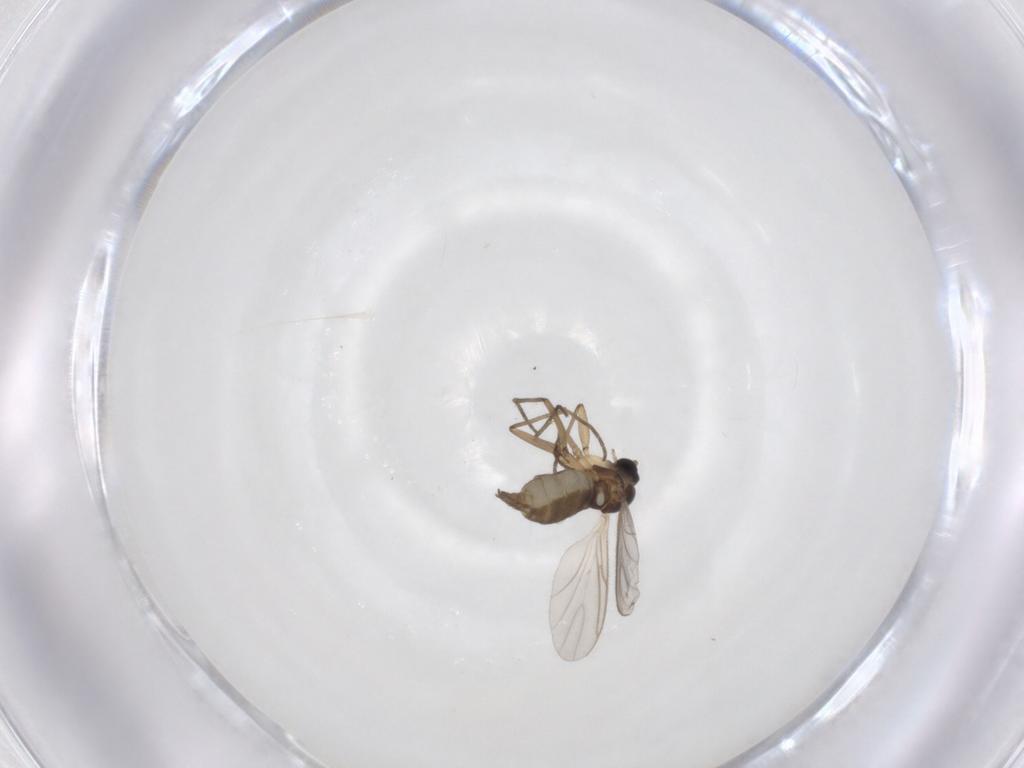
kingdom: Animalia
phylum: Arthropoda
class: Insecta
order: Diptera
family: Chironomidae
